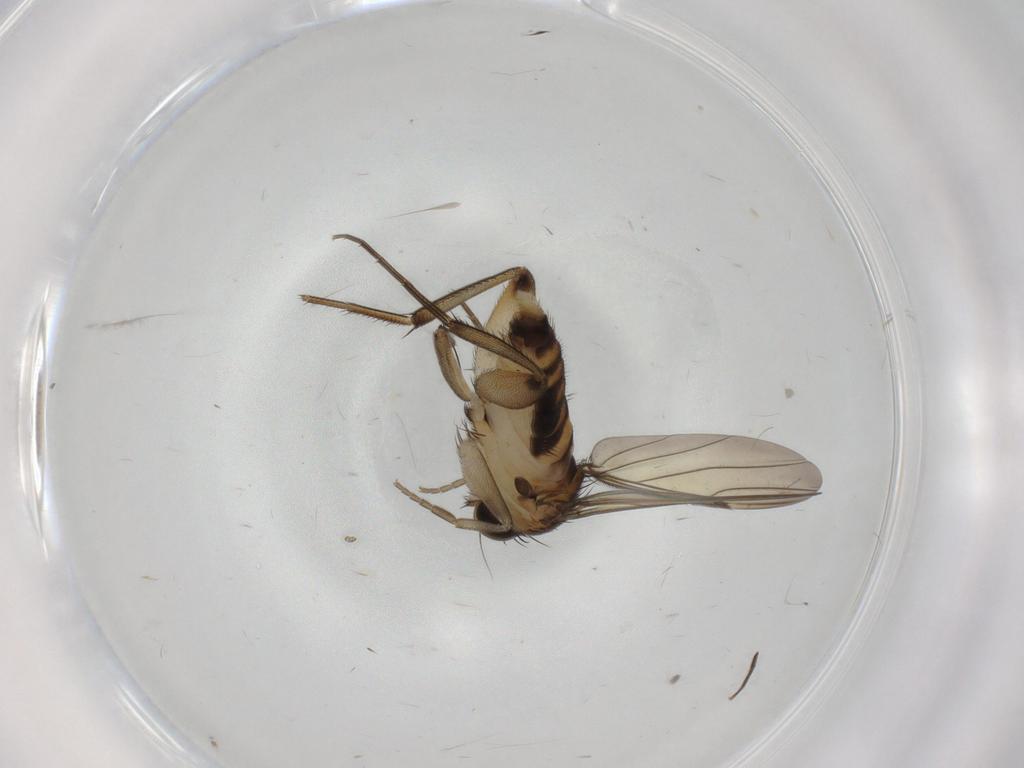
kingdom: Animalia
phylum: Arthropoda
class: Insecta
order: Diptera
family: Phoridae
